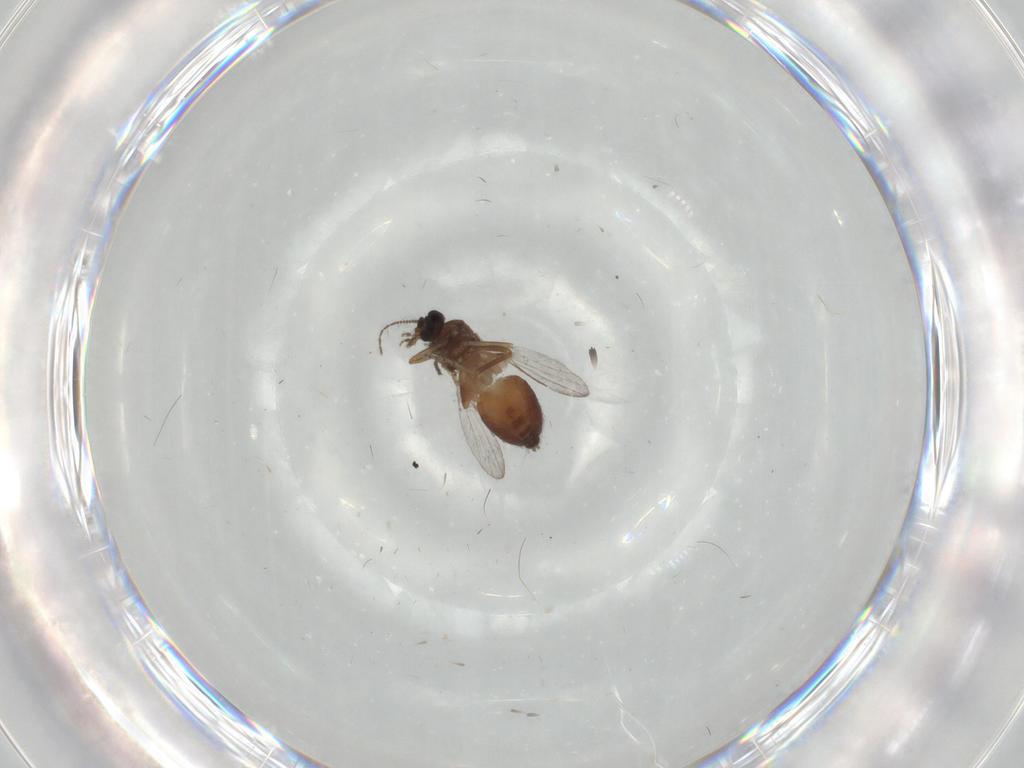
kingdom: Animalia
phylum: Arthropoda
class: Insecta
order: Diptera
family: Ceratopogonidae
